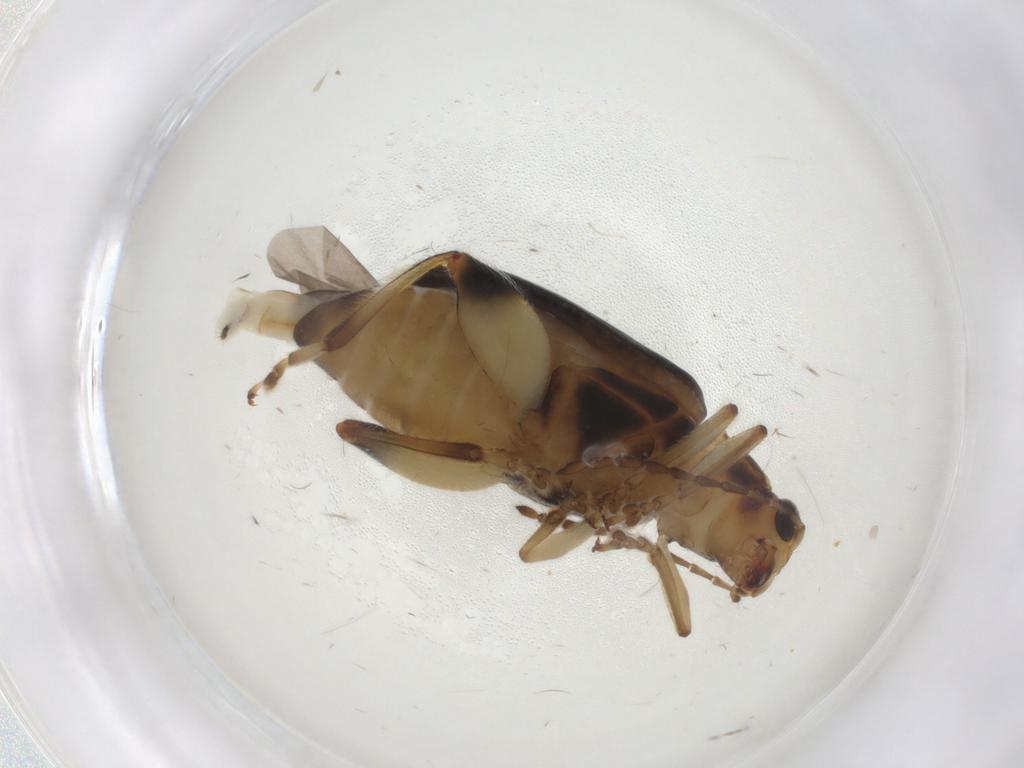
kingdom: Animalia
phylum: Arthropoda
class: Insecta
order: Coleoptera
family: Chrysomelidae
